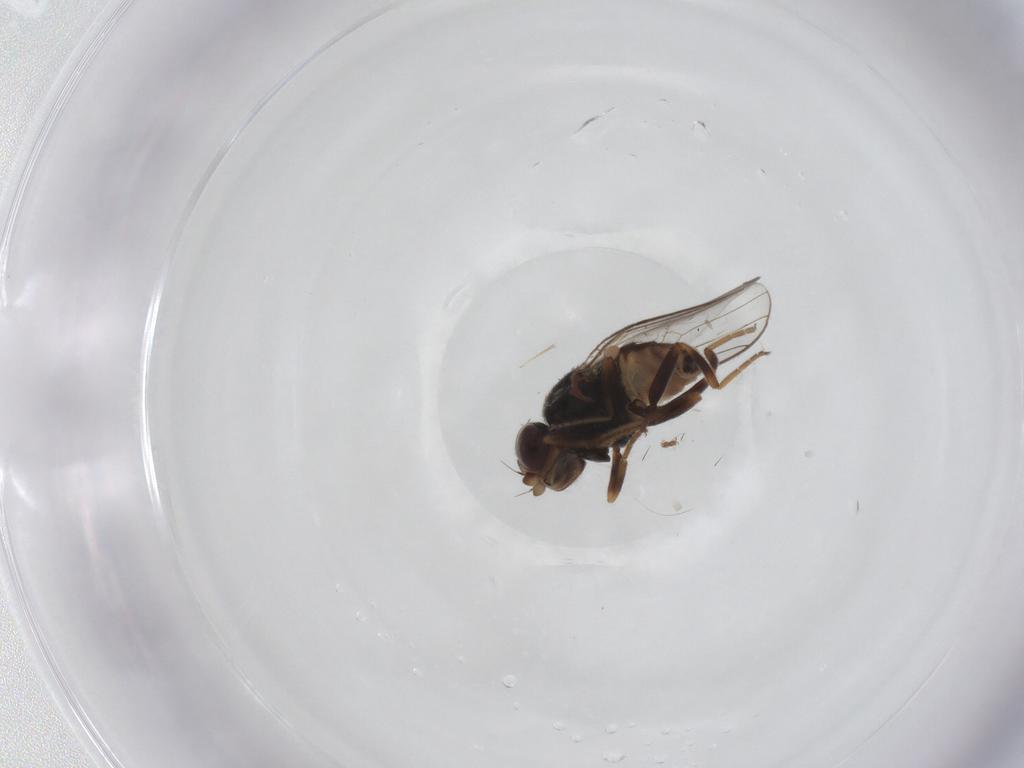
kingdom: Animalia
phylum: Arthropoda
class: Insecta
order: Diptera
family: Chloropidae
